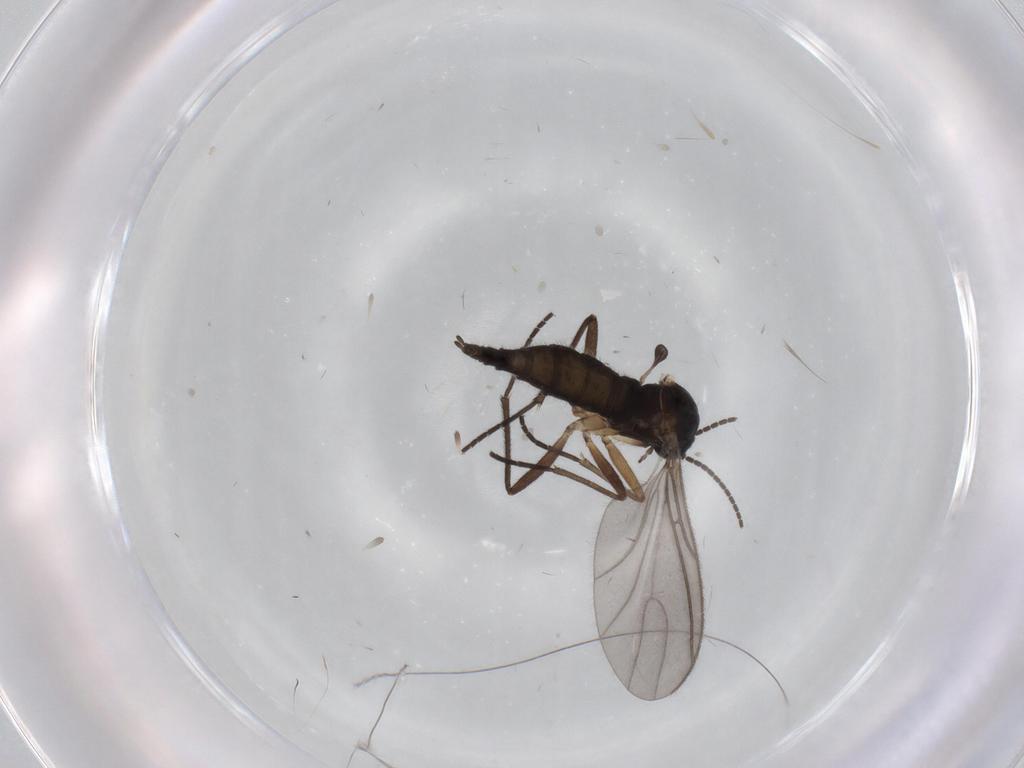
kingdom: Animalia
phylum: Arthropoda
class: Insecta
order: Diptera
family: Sciaridae
